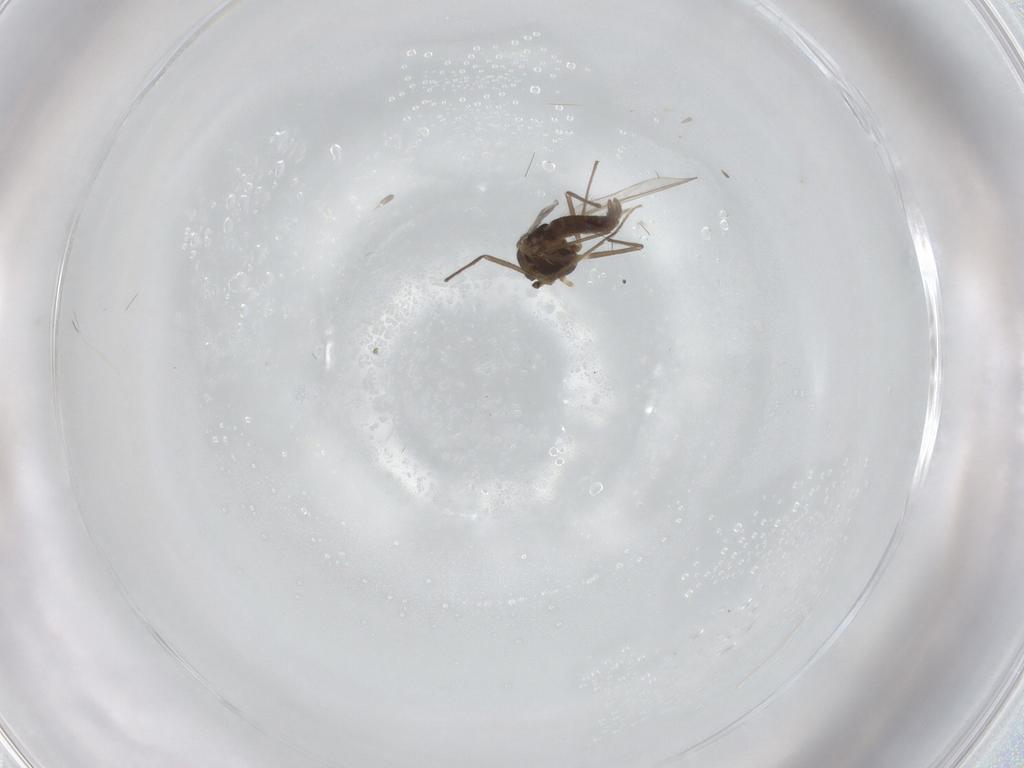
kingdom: Animalia
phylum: Arthropoda
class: Insecta
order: Diptera
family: Chironomidae
